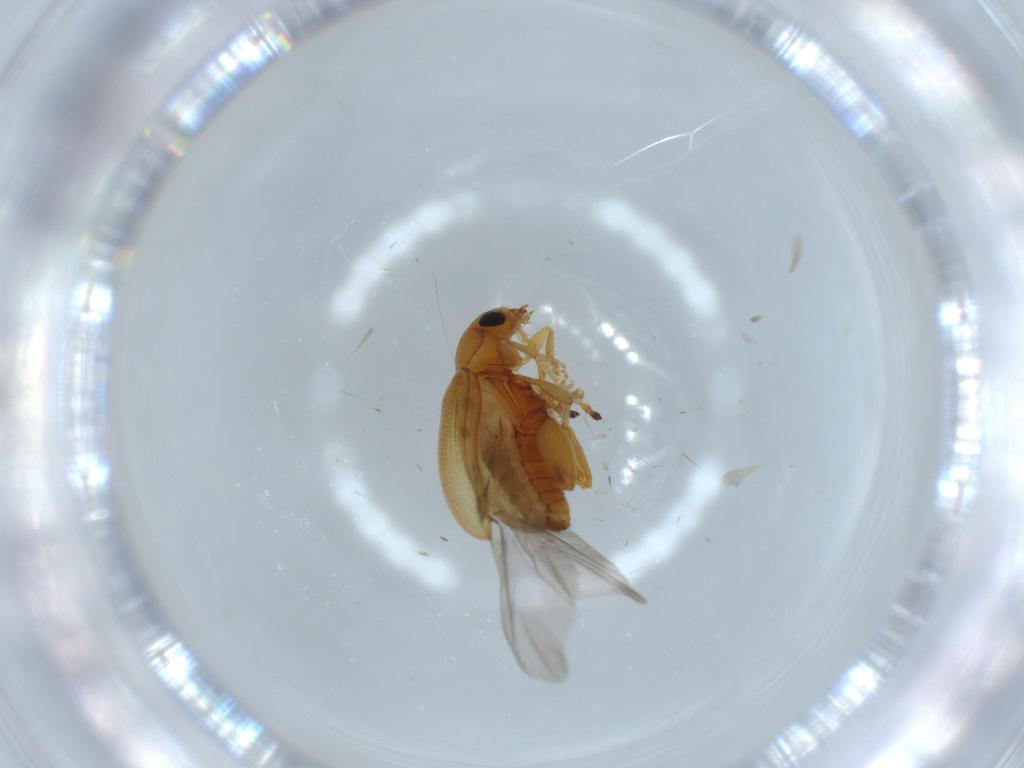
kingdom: Animalia
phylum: Arthropoda
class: Insecta
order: Coleoptera
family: Chrysomelidae
